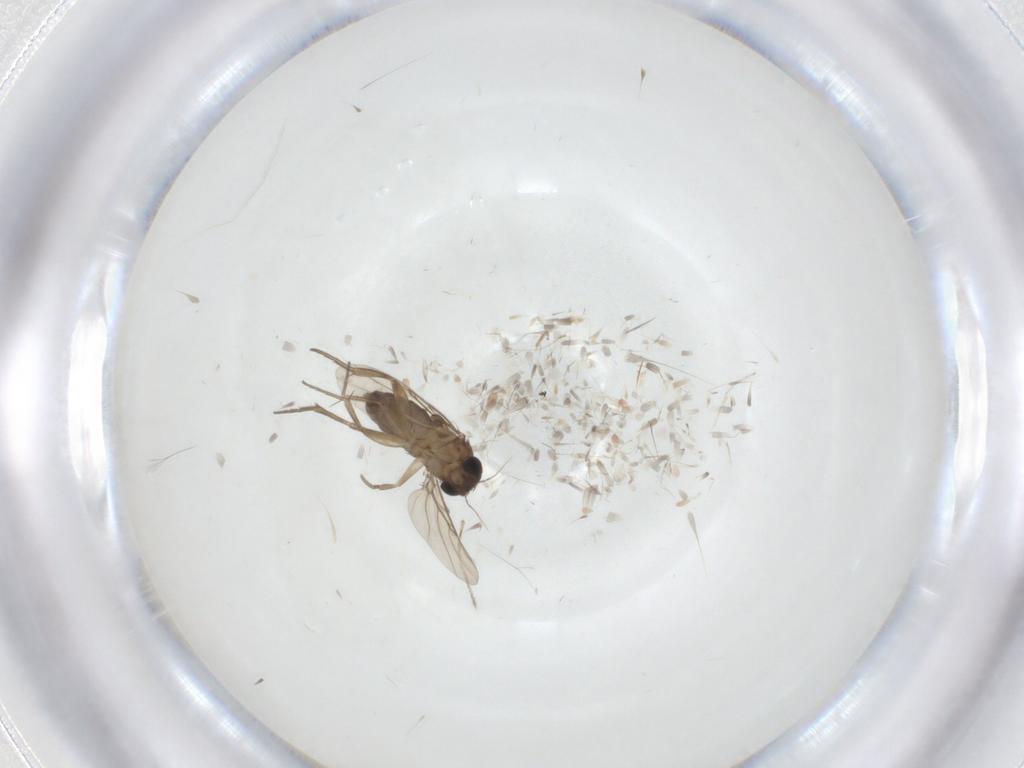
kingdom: Animalia
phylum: Arthropoda
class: Insecta
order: Diptera
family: Phoridae
